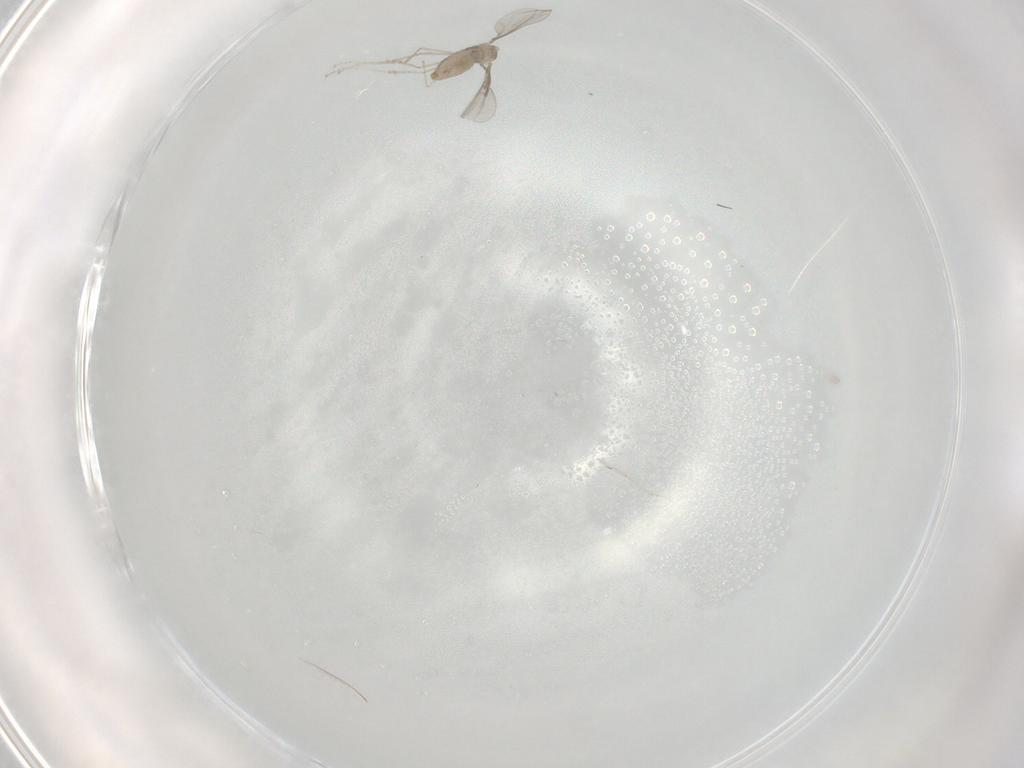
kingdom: Animalia
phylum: Arthropoda
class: Insecta
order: Diptera
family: Cecidomyiidae
